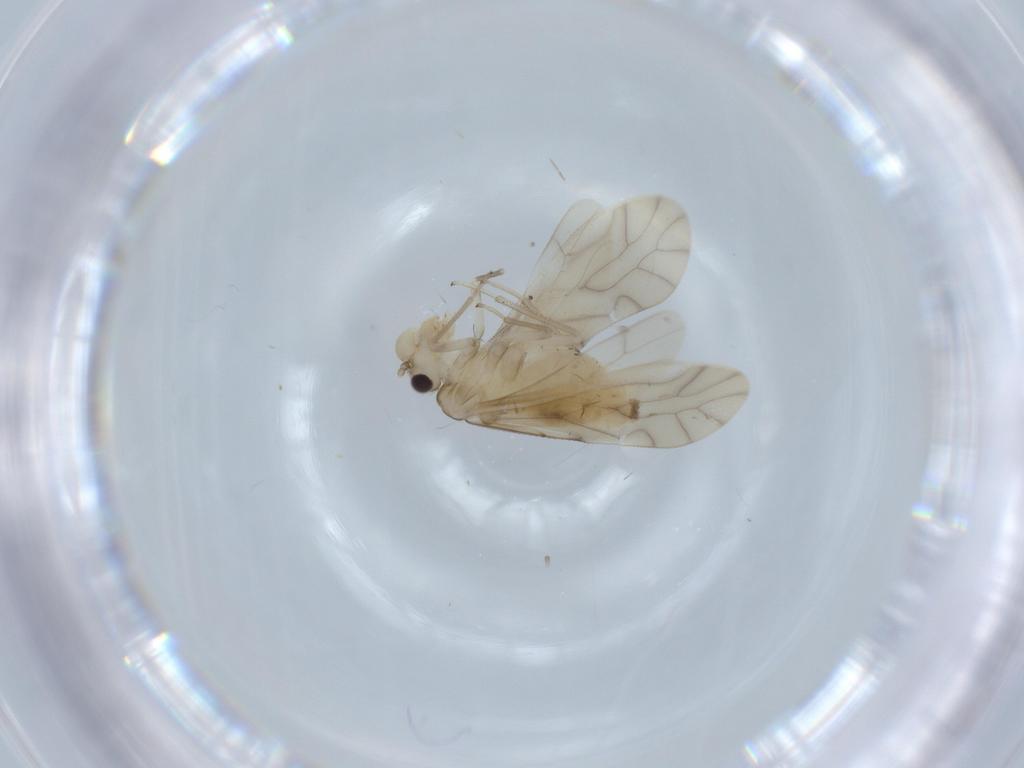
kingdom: Animalia
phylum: Arthropoda
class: Insecta
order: Psocodea
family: Caeciliusidae
